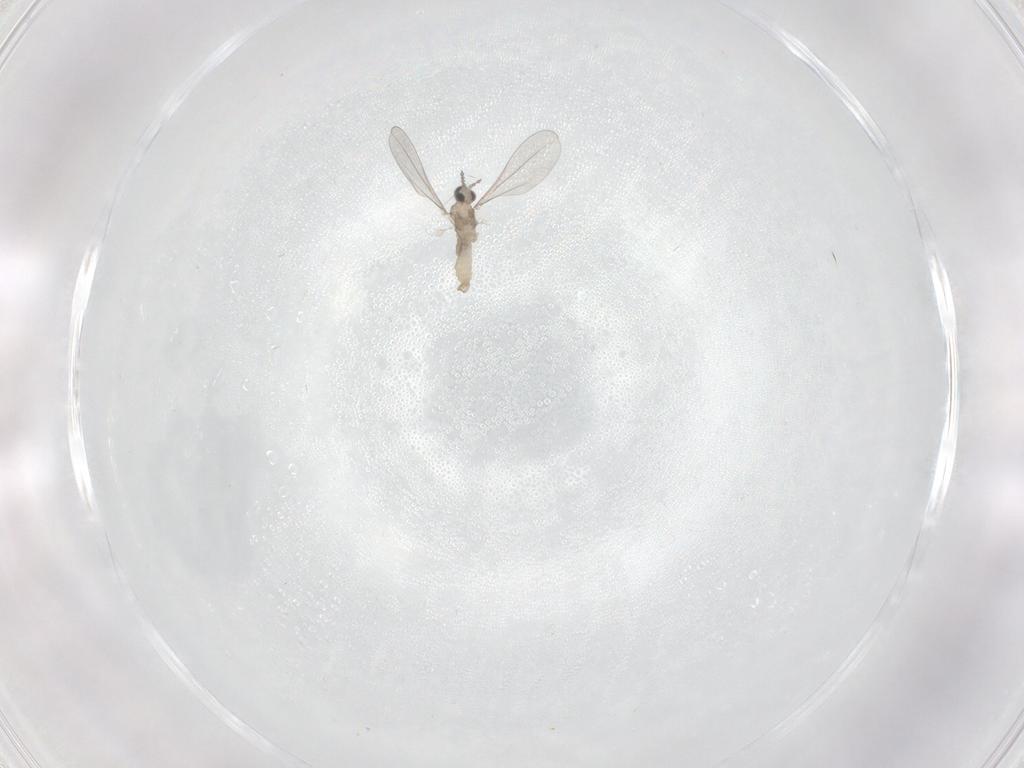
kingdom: Animalia
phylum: Arthropoda
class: Insecta
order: Diptera
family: Cecidomyiidae
